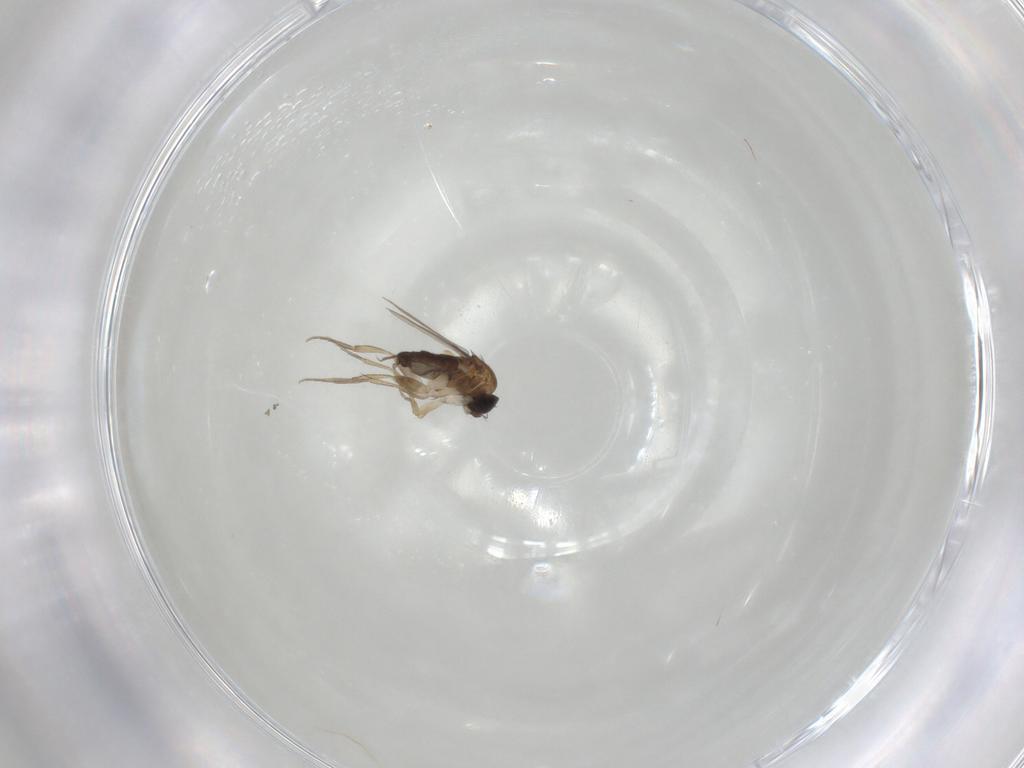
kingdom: Animalia
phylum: Arthropoda
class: Insecta
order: Diptera
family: Phoridae
